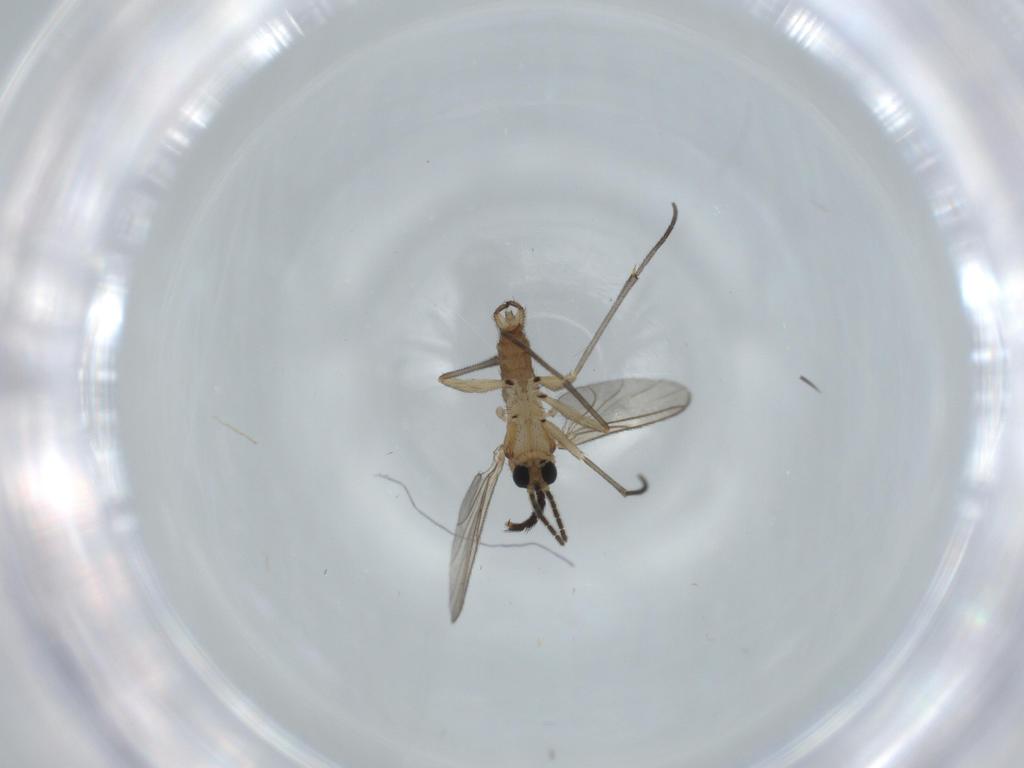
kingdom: Animalia
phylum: Arthropoda
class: Insecta
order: Diptera
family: Sciaridae
